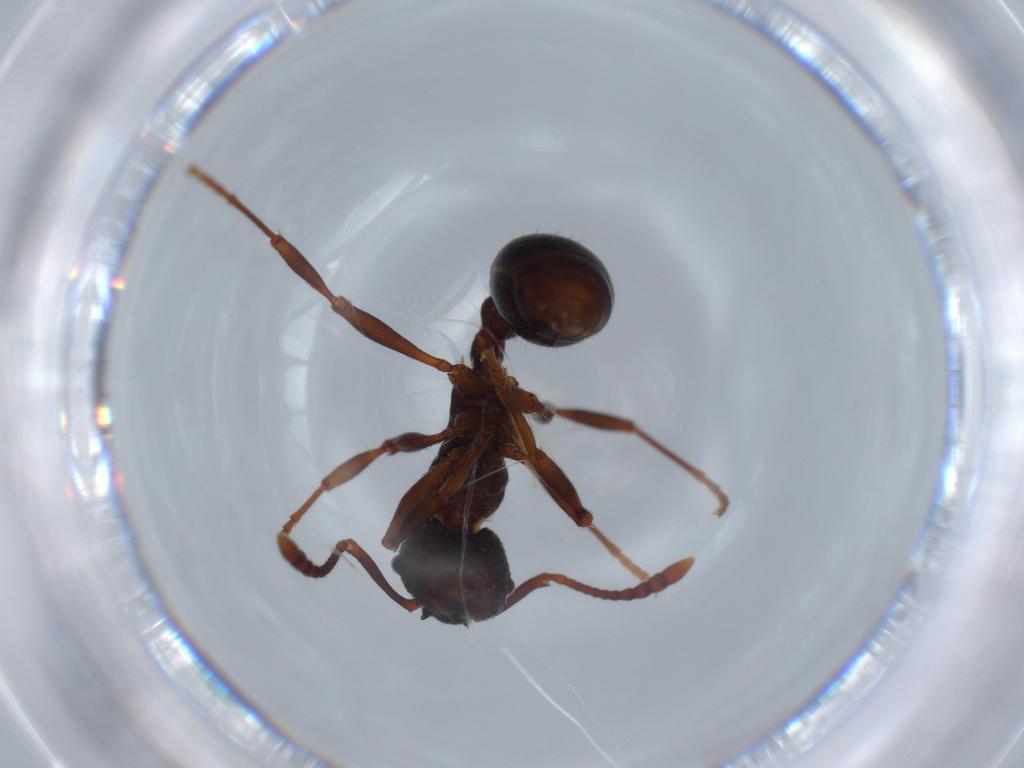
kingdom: Animalia
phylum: Arthropoda
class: Insecta
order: Hymenoptera
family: Formicidae
